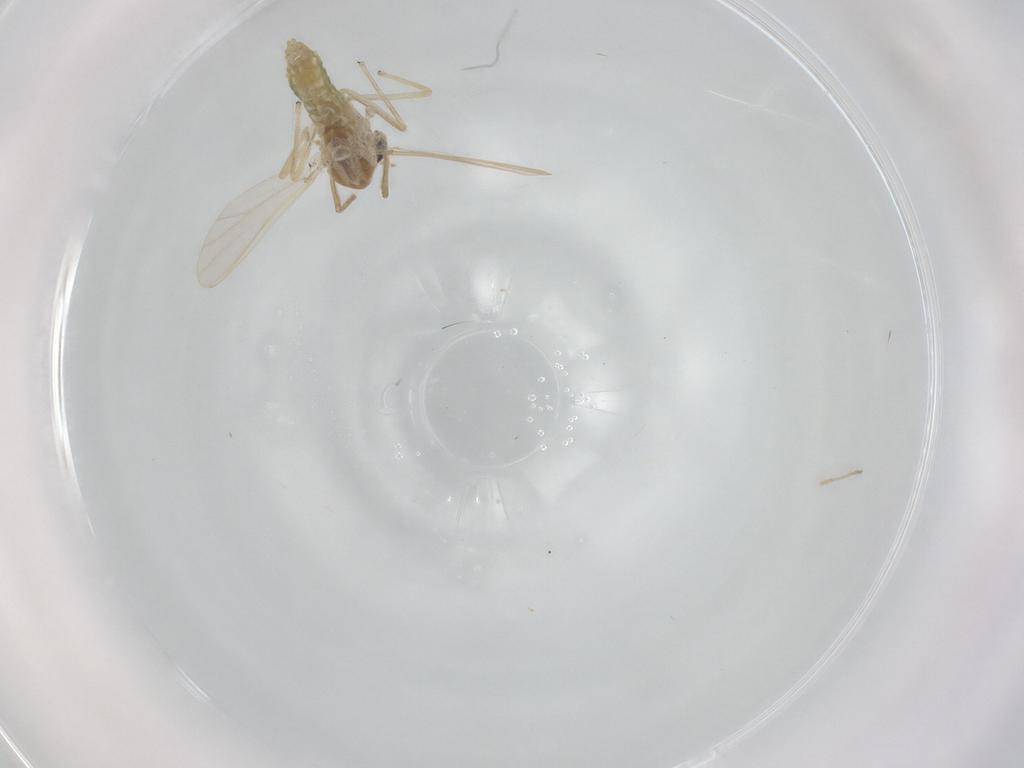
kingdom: Animalia
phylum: Arthropoda
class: Insecta
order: Diptera
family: Chironomidae
